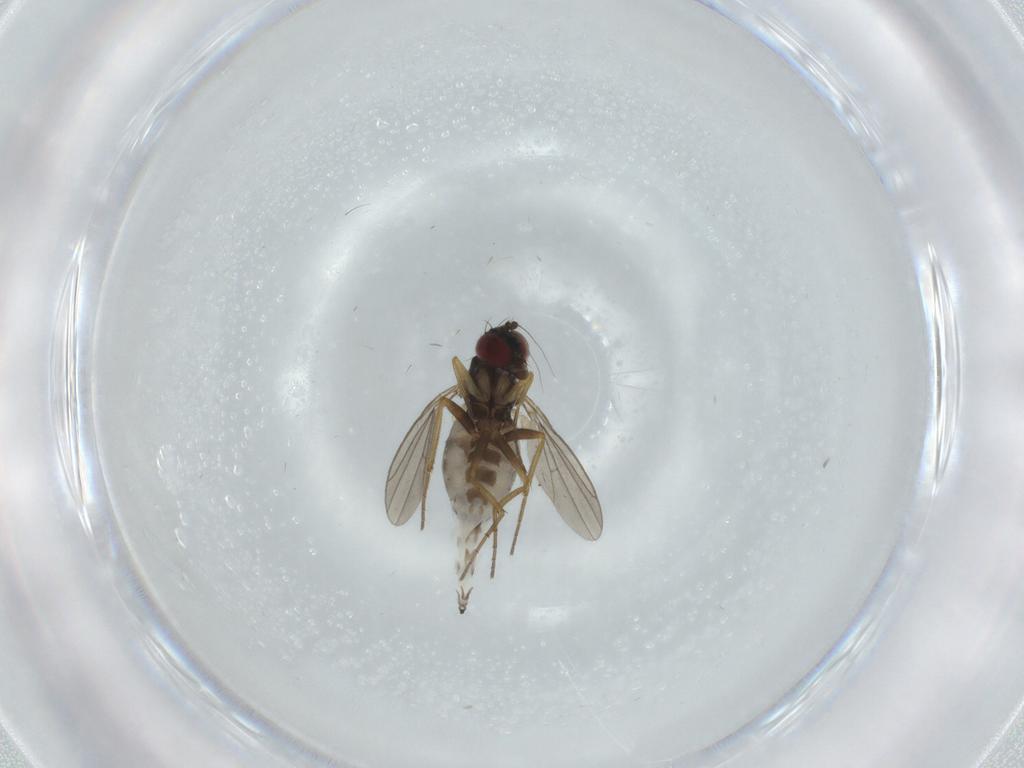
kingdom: Animalia
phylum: Arthropoda
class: Insecta
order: Diptera
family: Dolichopodidae
